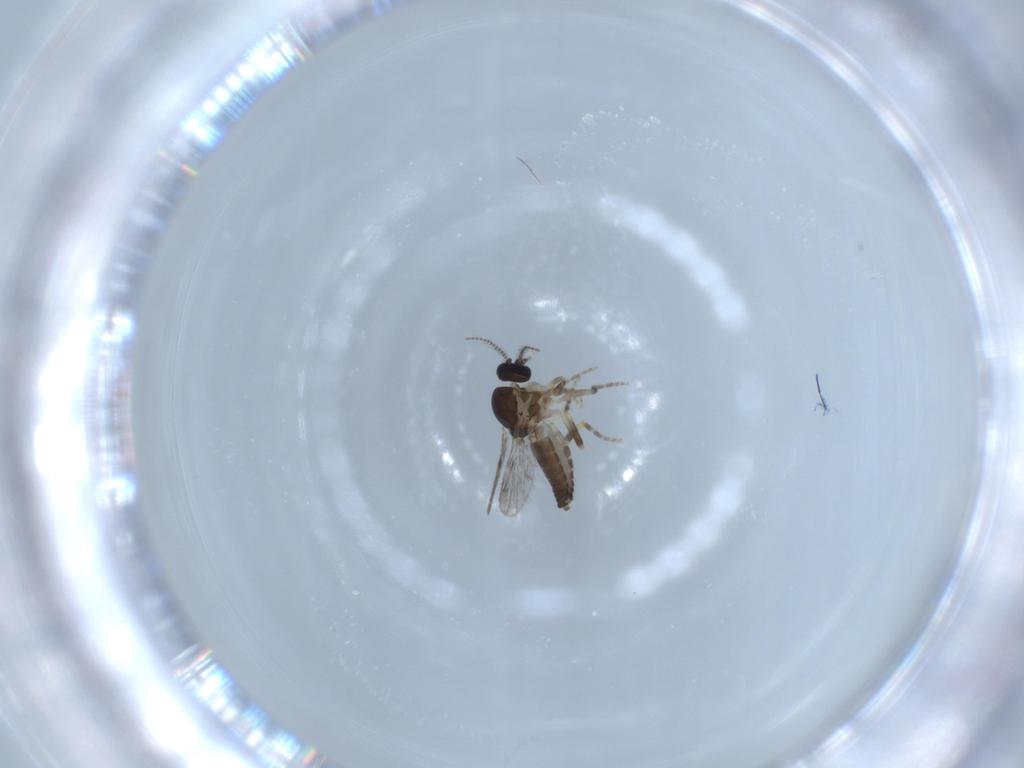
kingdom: Animalia
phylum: Arthropoda
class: Insecta
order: Diptera
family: Ceratopogonidae
